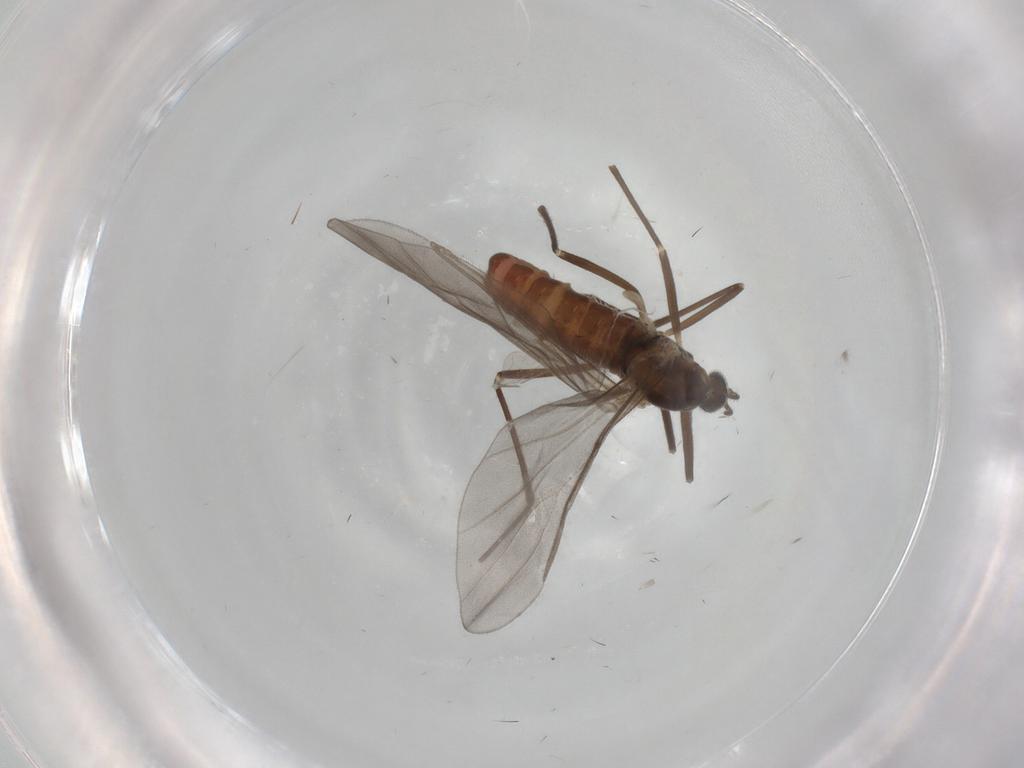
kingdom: Animalia
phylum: Arthropoda
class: Insecta
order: Diptera
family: Cecidomyiidae
